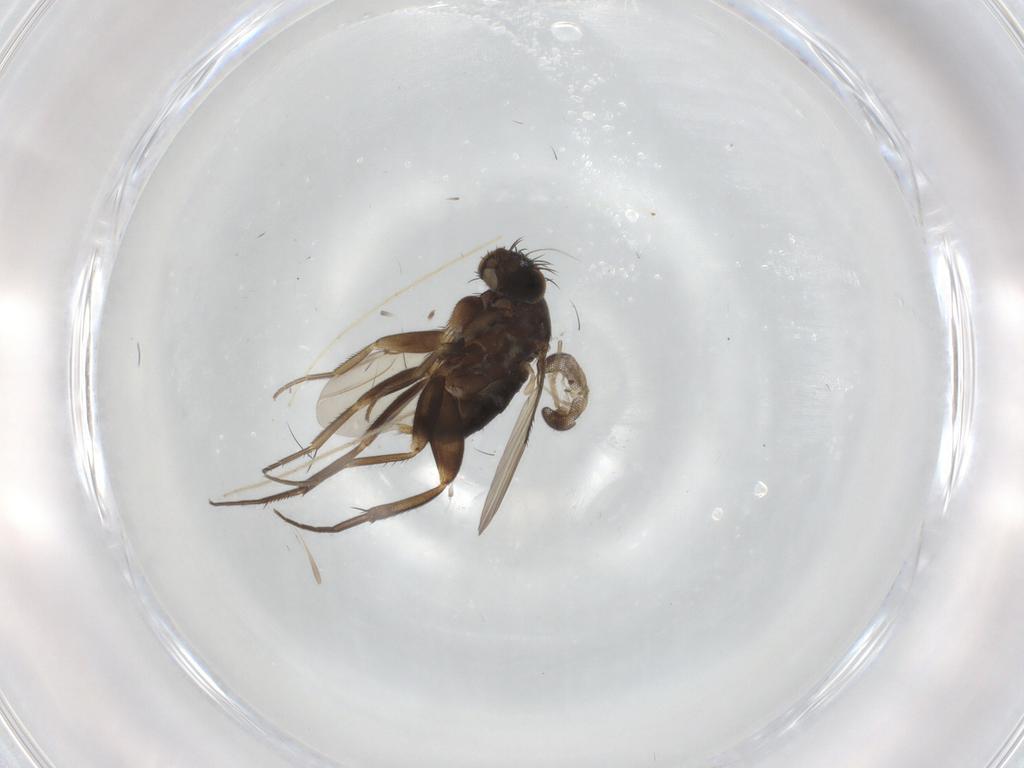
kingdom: Animalia
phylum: Arthropoda
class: Insecta
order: Diptera
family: Phoridae
